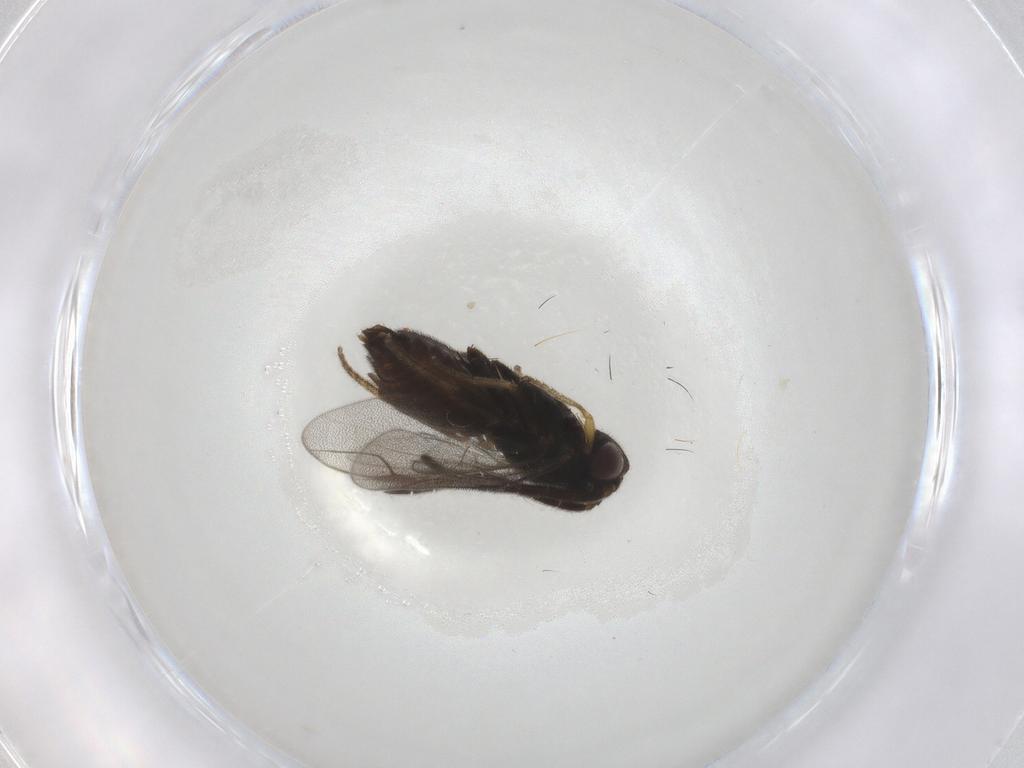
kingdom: Animalia
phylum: Arthropoda
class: Insecta
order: Hymenoptera
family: Dryinidae
